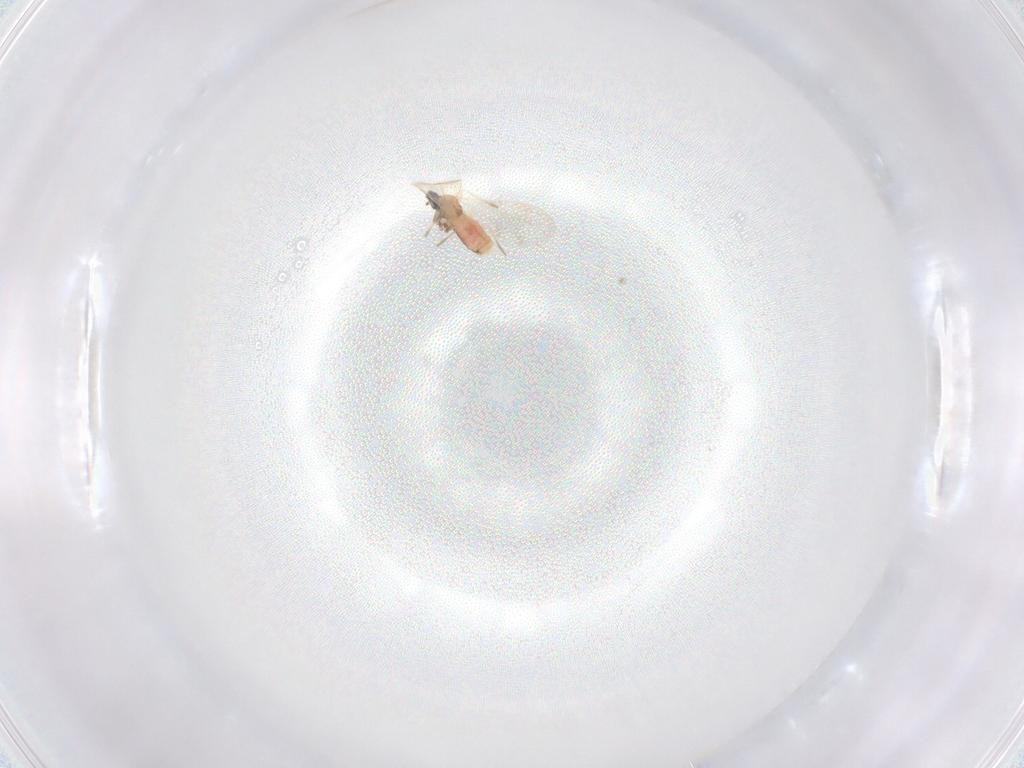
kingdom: Animalia
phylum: Arthropoda
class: Insecta
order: Diptera
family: Cecidomyiidae
